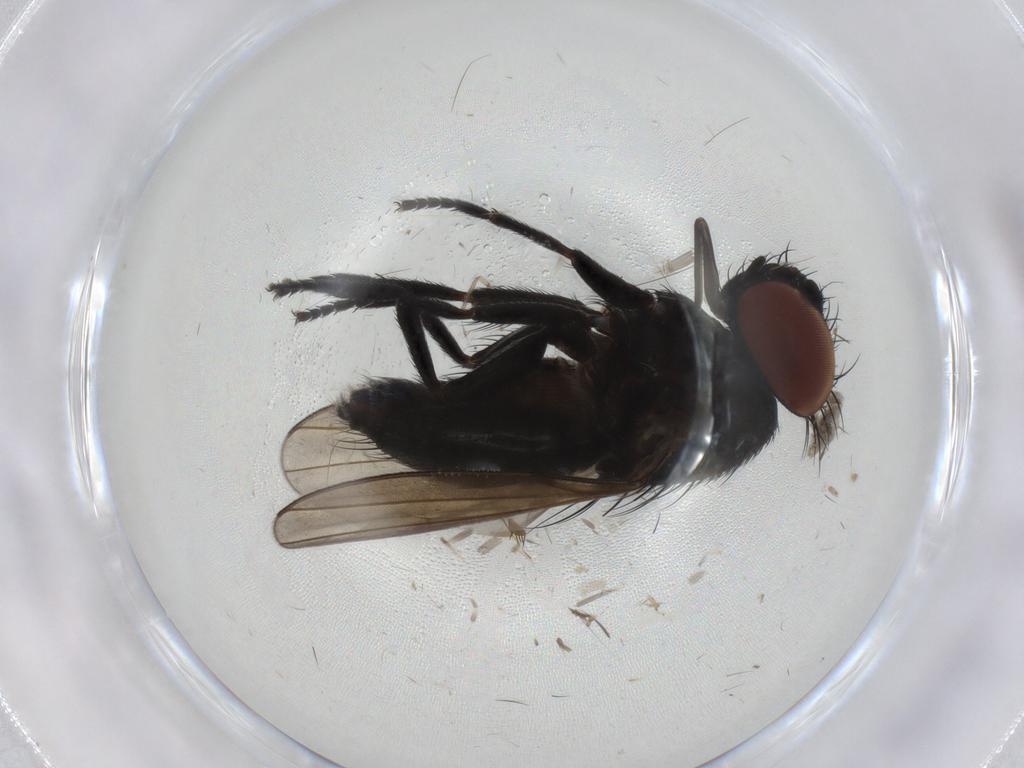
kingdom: Animalia
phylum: Arthropoda
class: Insecta
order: Diptera
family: Milichiidae
